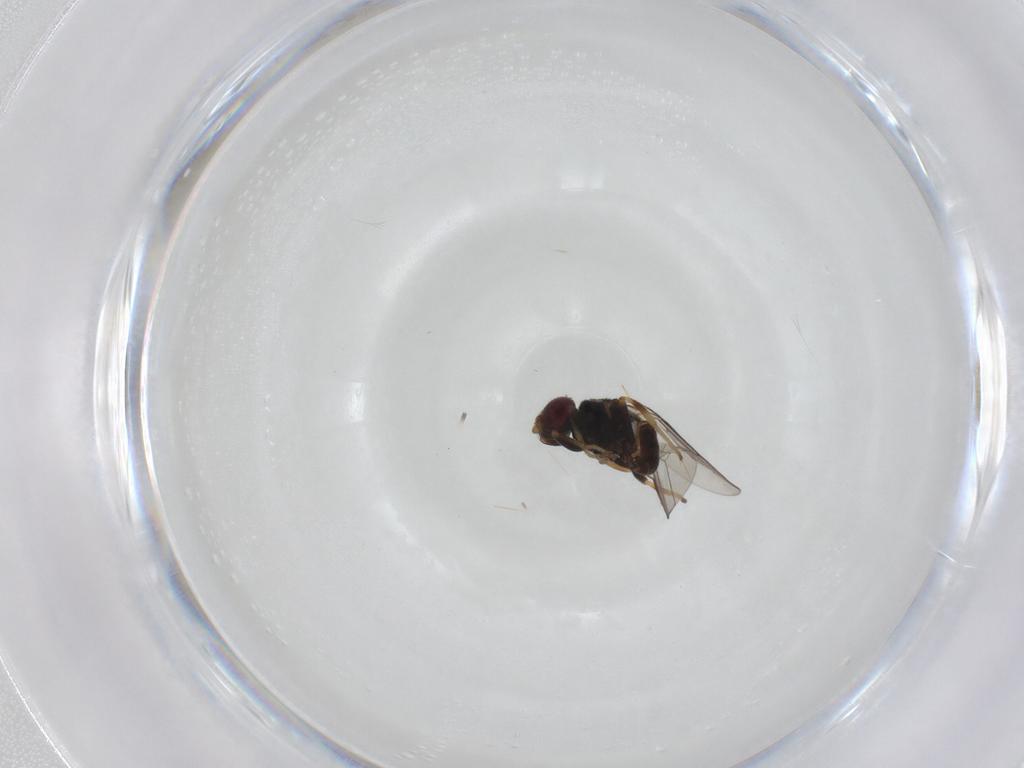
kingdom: Animalia
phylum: Arthropoda
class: Insecta
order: Diptera
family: Chloropidae
